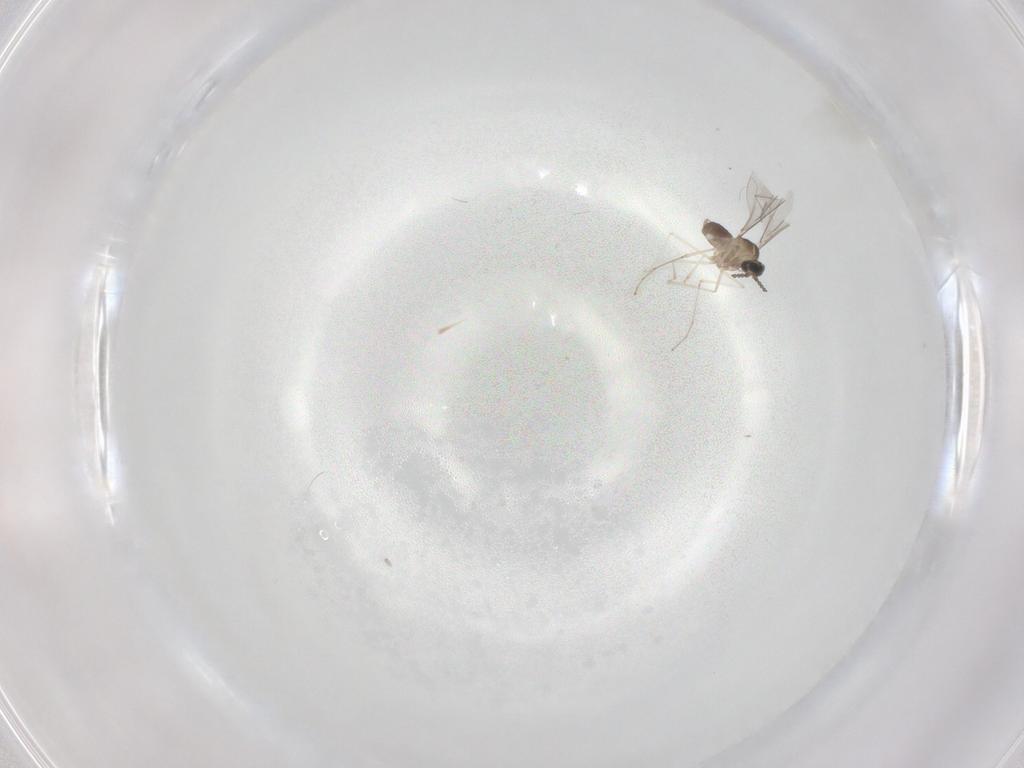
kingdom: Animalia
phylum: Arthropoda
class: Insecta
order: Diptera
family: Cecidomyiidae
